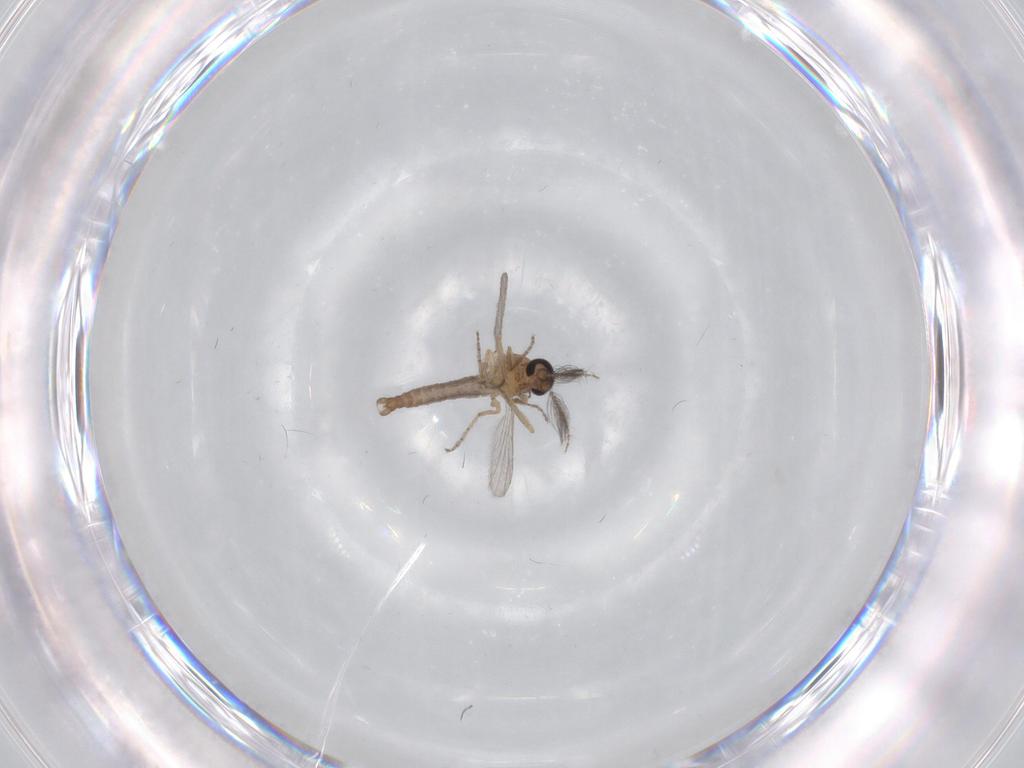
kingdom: Animalia
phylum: Arthropoda
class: Insecta
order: Diptera
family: Ceratopogonidae
